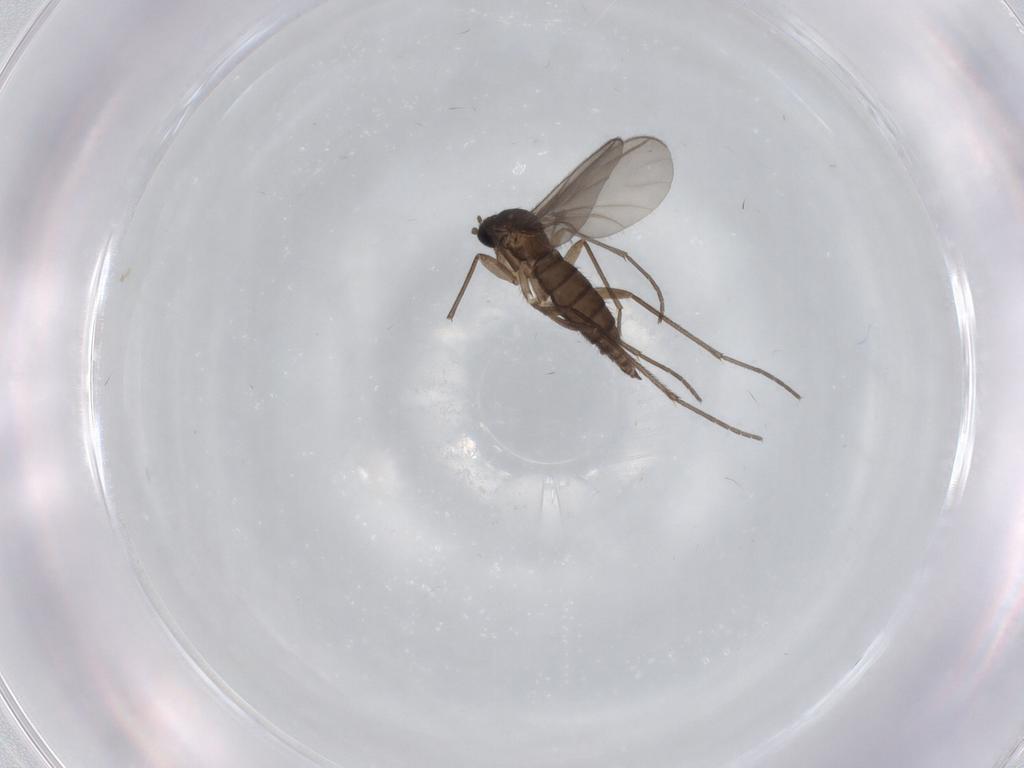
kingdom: Animalia
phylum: Arthropoda
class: Insecta
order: Diptera
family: Sciaridae
